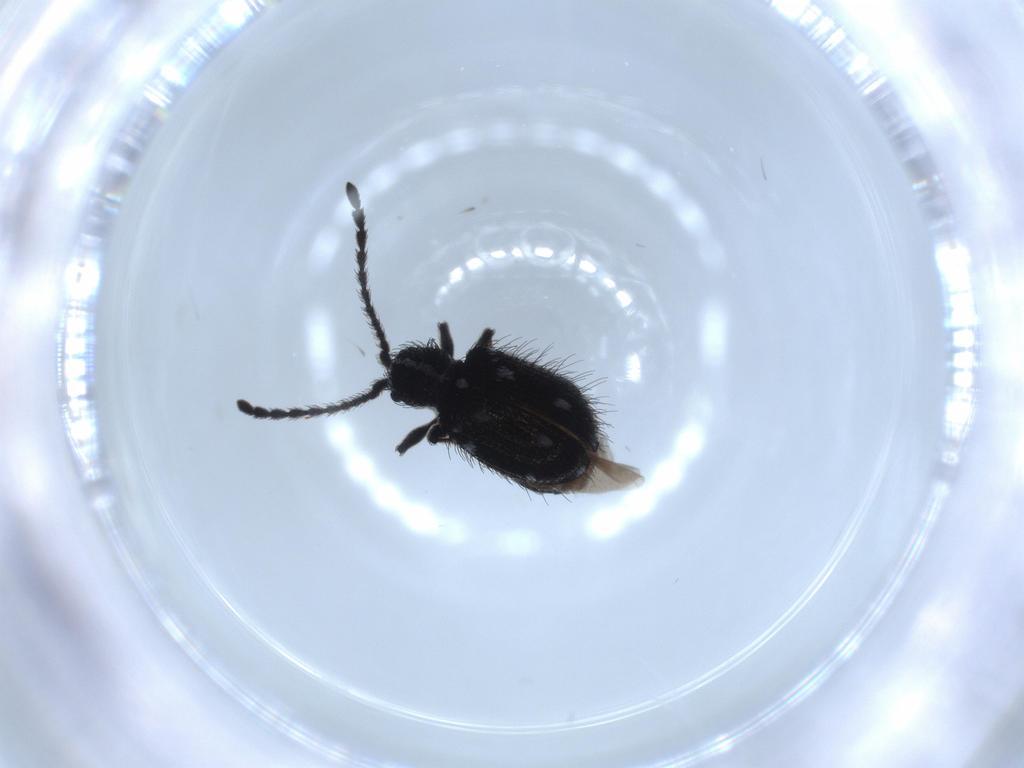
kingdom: Animalia
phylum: Arthropoda
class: Insecta
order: Coleoptera
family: Ptinidae
